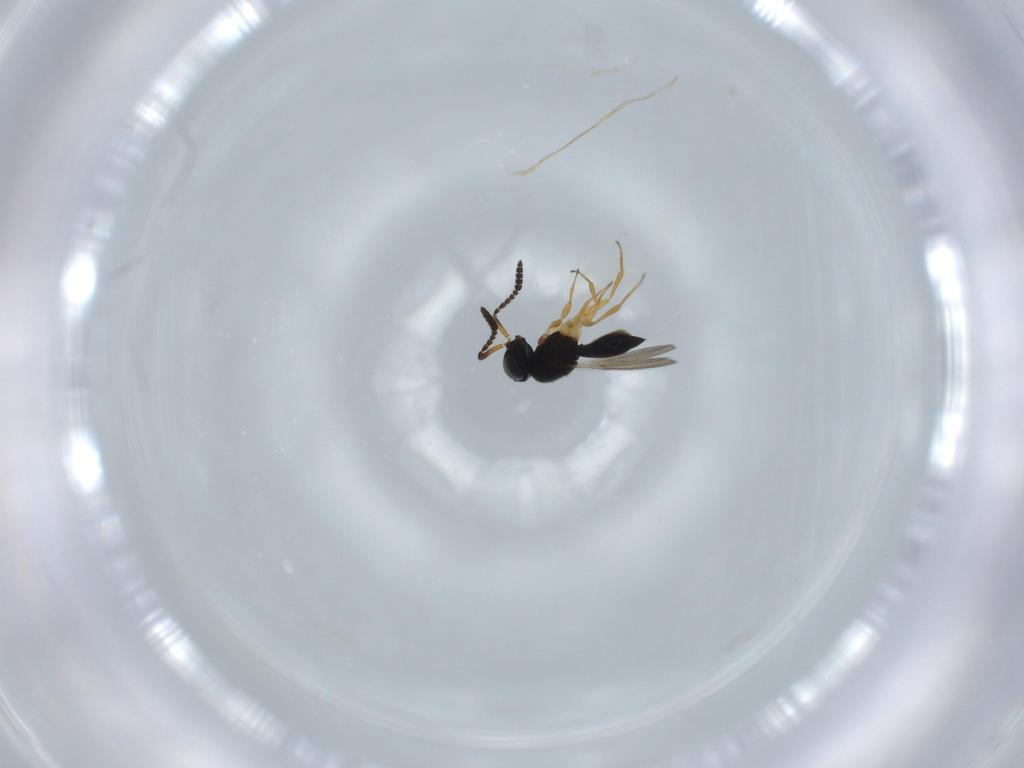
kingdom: Animalia
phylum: Arthropoda
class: Insecta
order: Hymenoptera
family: Scelionidae
